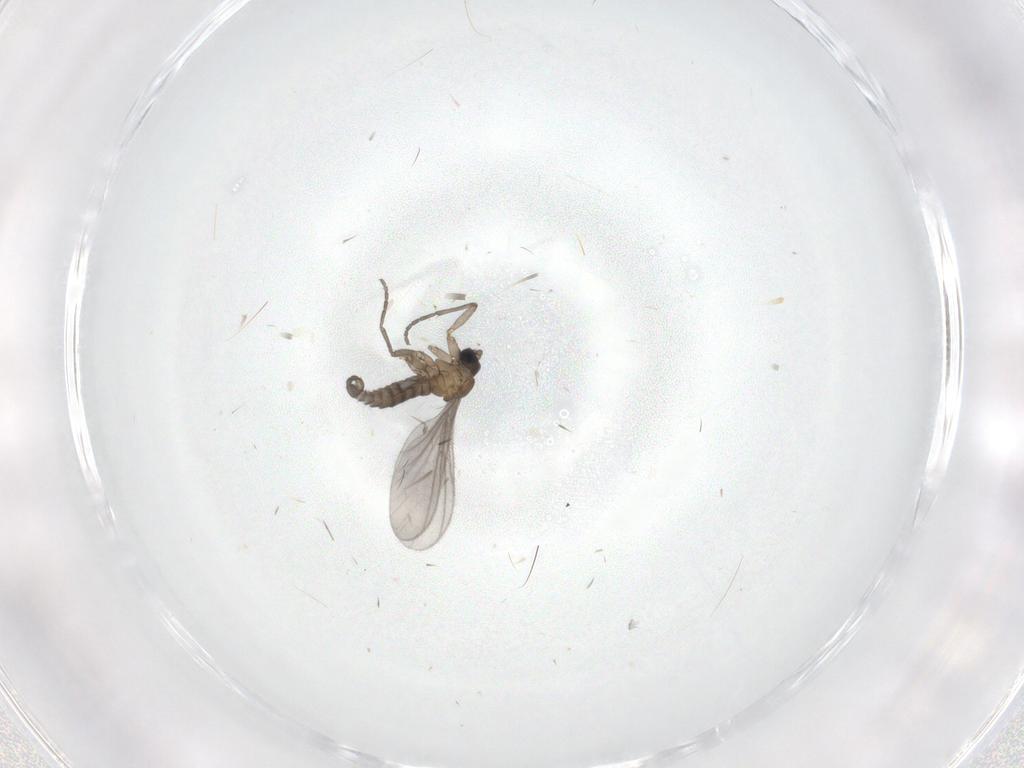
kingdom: Animalia
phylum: Arthropoda
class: Insecta
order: Diptera
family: Sciaridae
